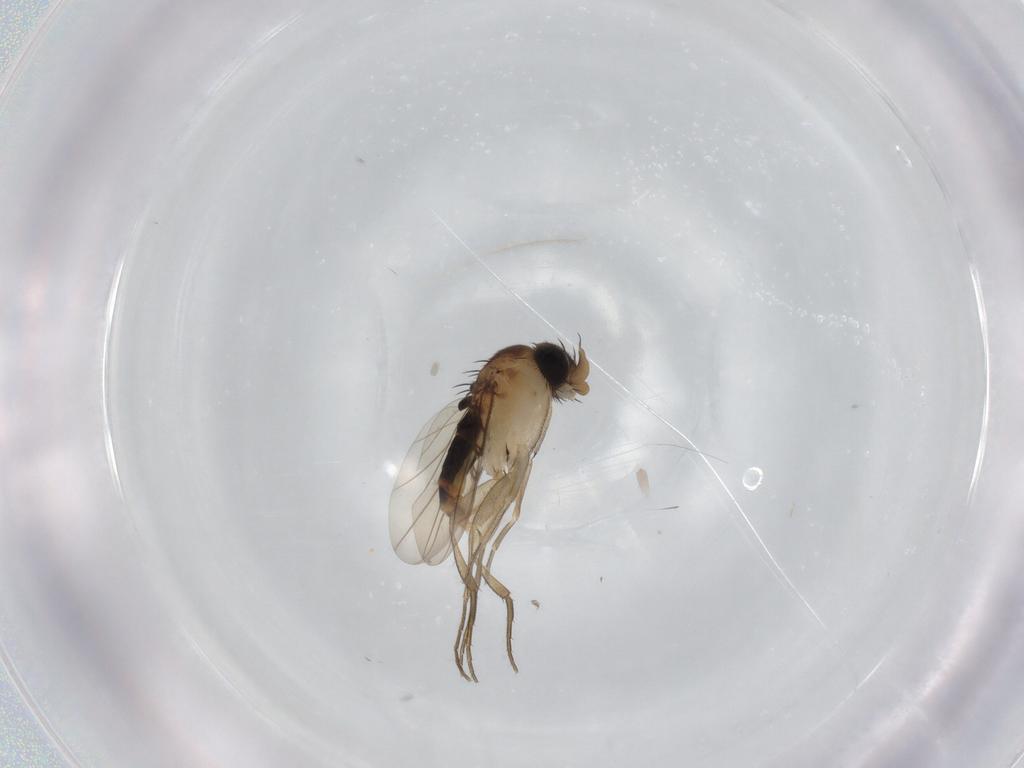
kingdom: Animalia
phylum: Arthropoda
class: Insecta
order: Diptera
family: Phoridae
